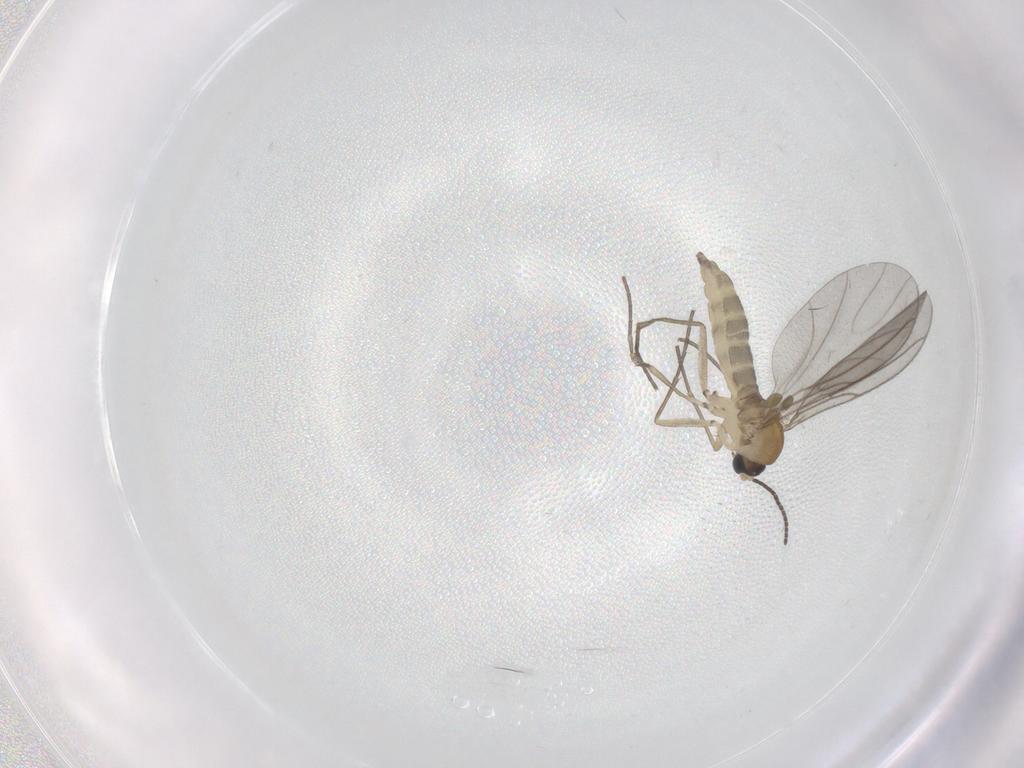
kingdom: Animalia
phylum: Arthropoda
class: Insecta
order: Diptera
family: Sciaridae
